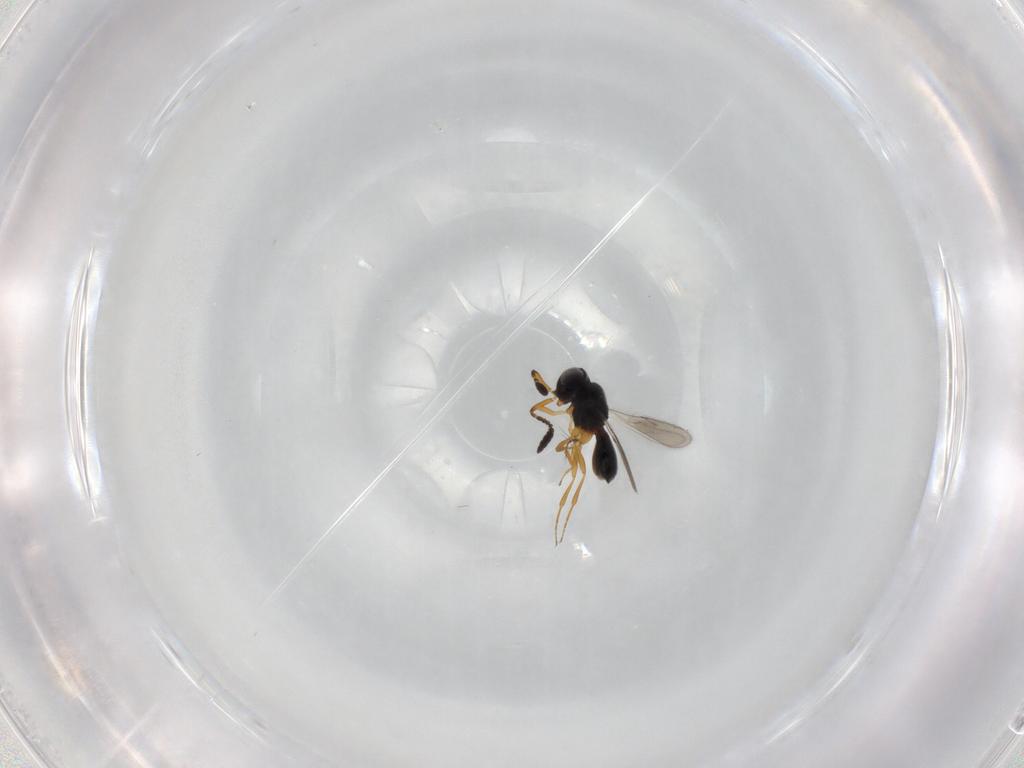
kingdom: Animalia
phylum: Arthropoda
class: Insecta
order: Hymenoptera
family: Scelionidae
